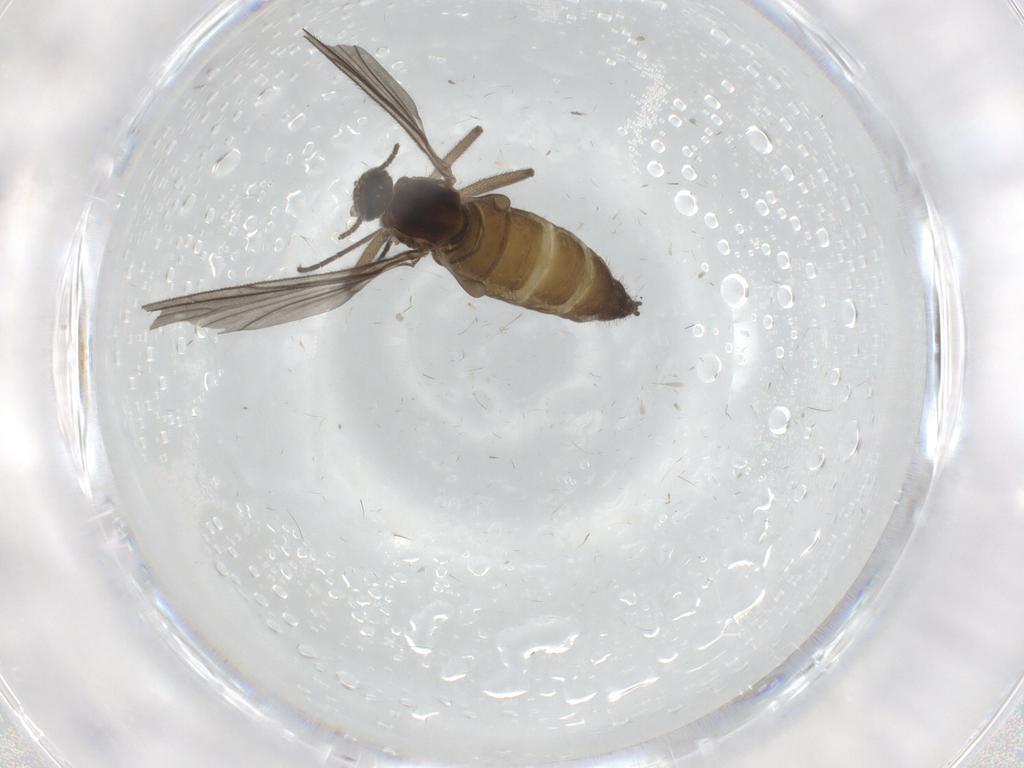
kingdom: Animalia
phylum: Arthropoda
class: Insecta
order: Diptera
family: Sciaridae
